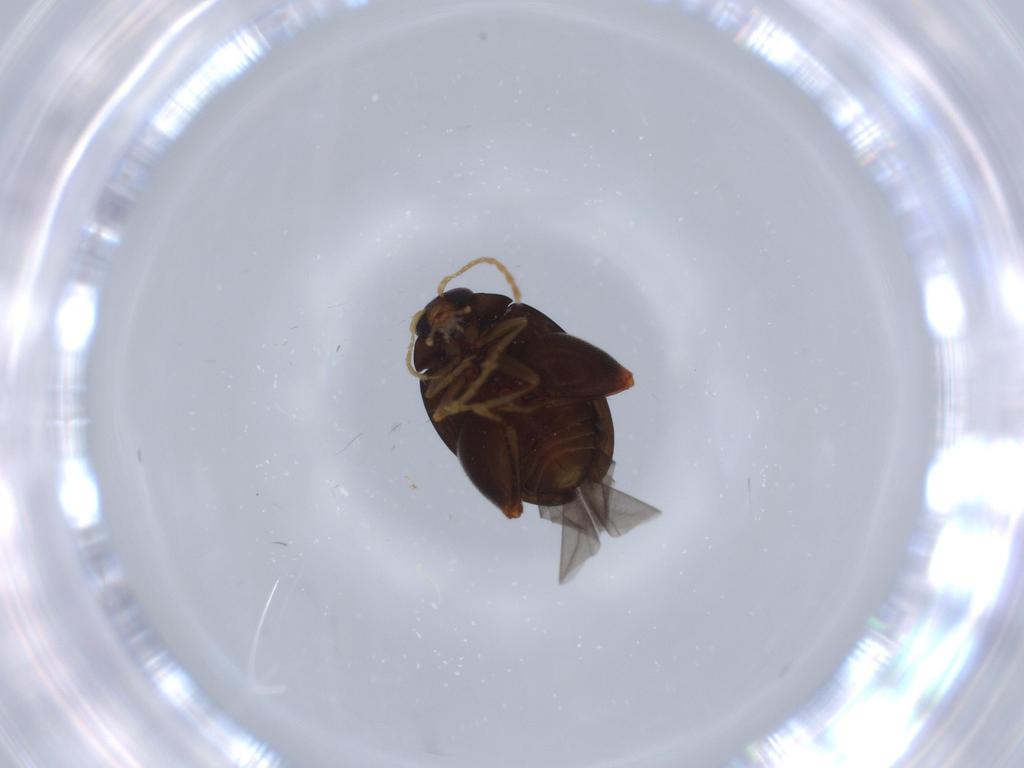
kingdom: Animalia
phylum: Arthropoda
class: Insecta
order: Coleoptera
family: Chrysomelidae
